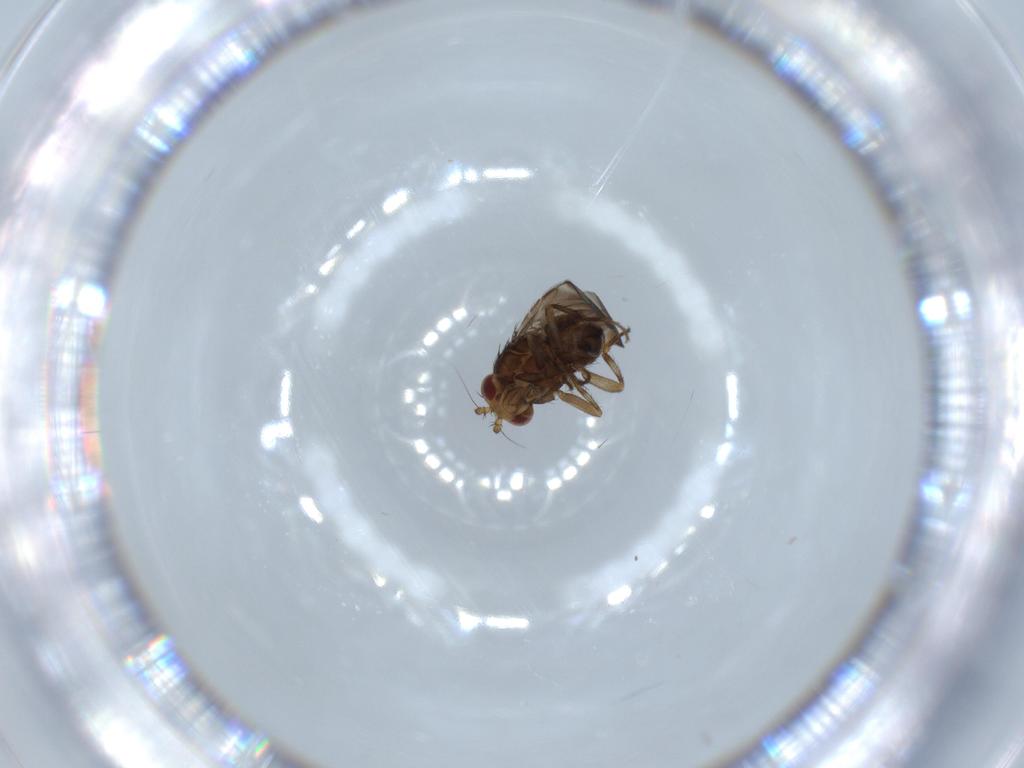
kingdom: Animalia
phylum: Arthropoda
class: Insecta
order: Diptera
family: Sphaeroceridae
